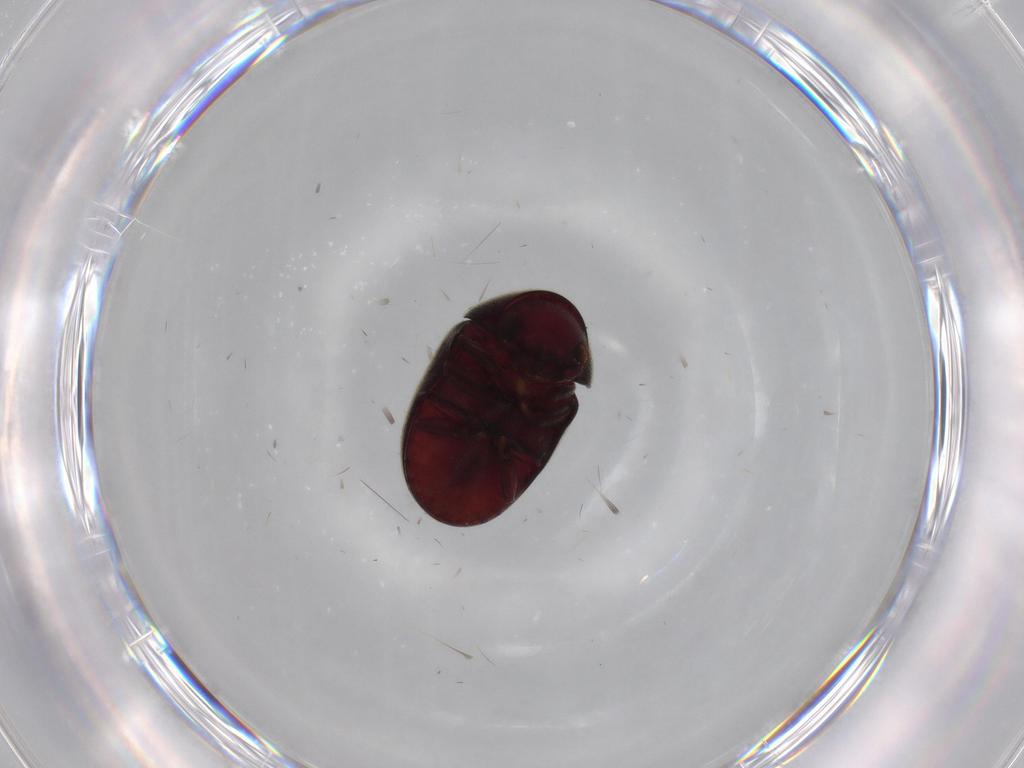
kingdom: Animalia
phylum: Arthropoda
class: Insecta
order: Coleoptera
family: Ptinidae
